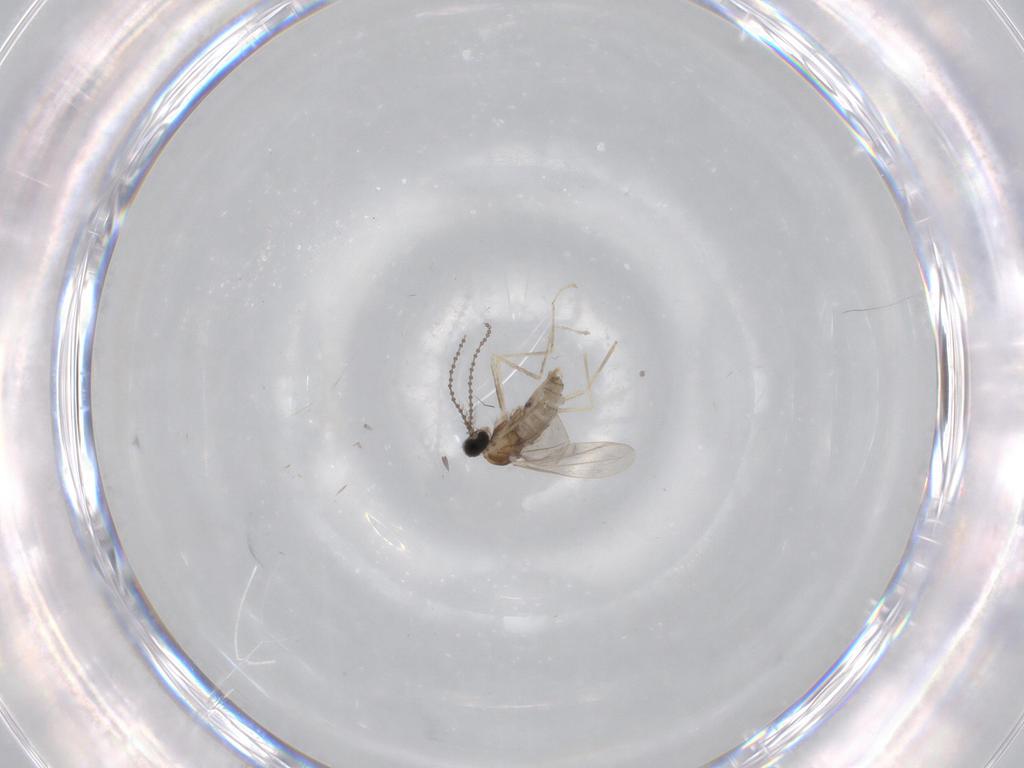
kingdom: Animalia
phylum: Arthropoda
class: Insecta
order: Diptera
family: Cecidomyiidae
